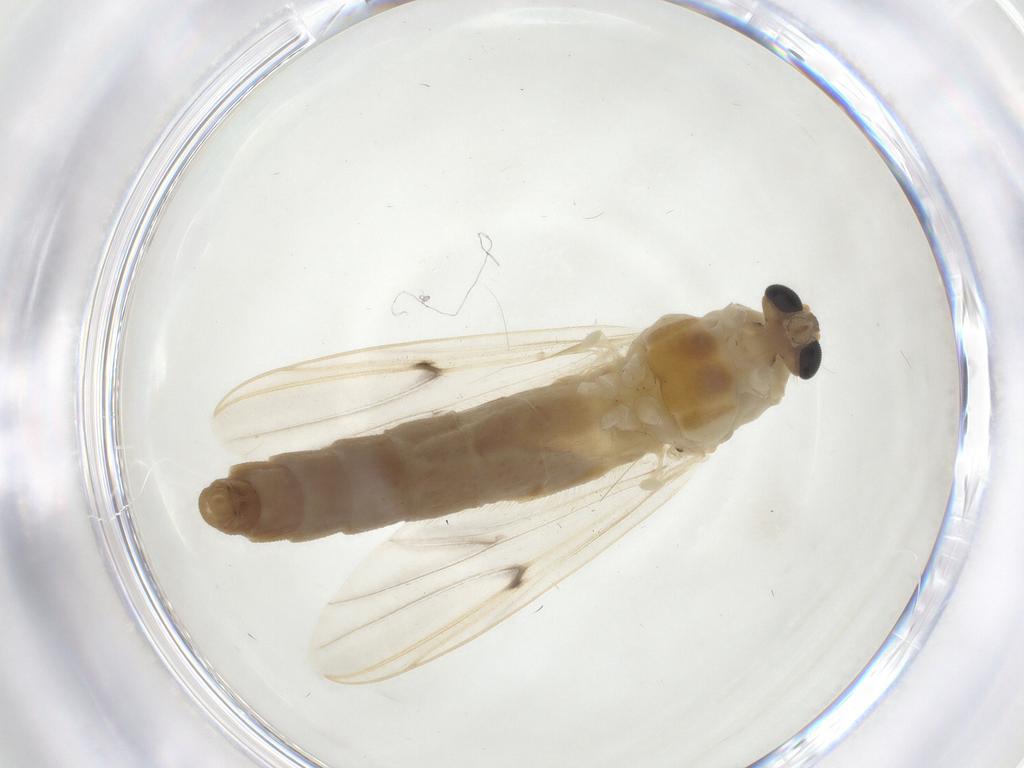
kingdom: Animalia
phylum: Arthropoda
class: Insecta
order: Diptera
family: Chironomidae
